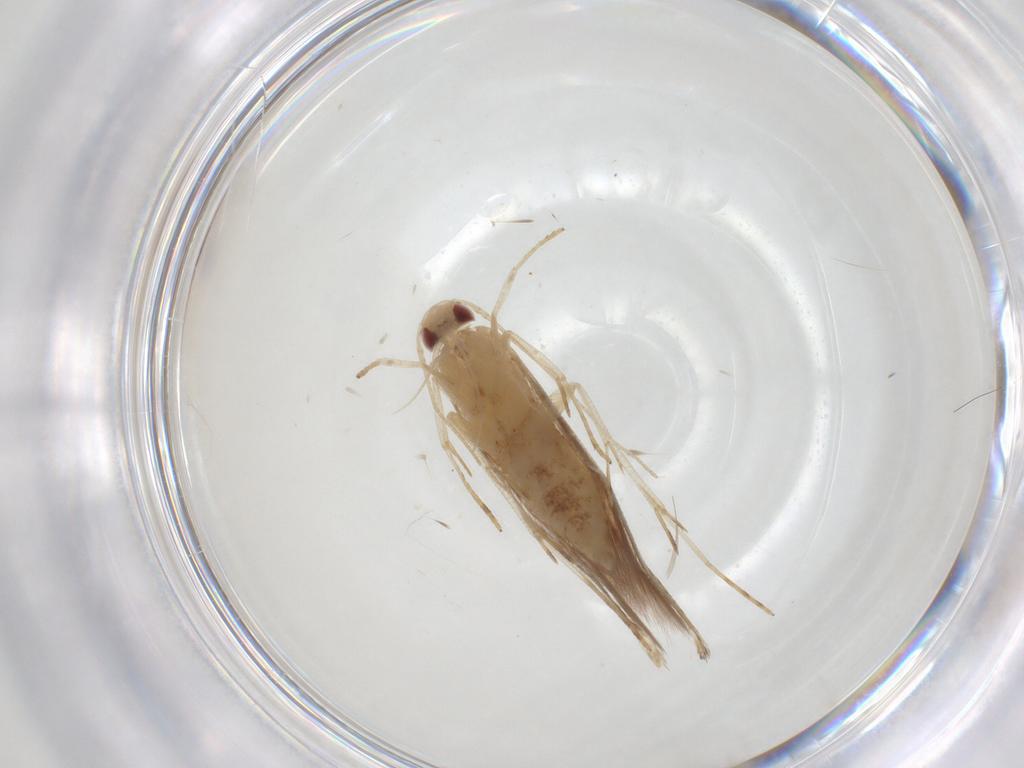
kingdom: Animalia
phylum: Arthropoda
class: Insecta
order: Lepidoptera
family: Erebidae
